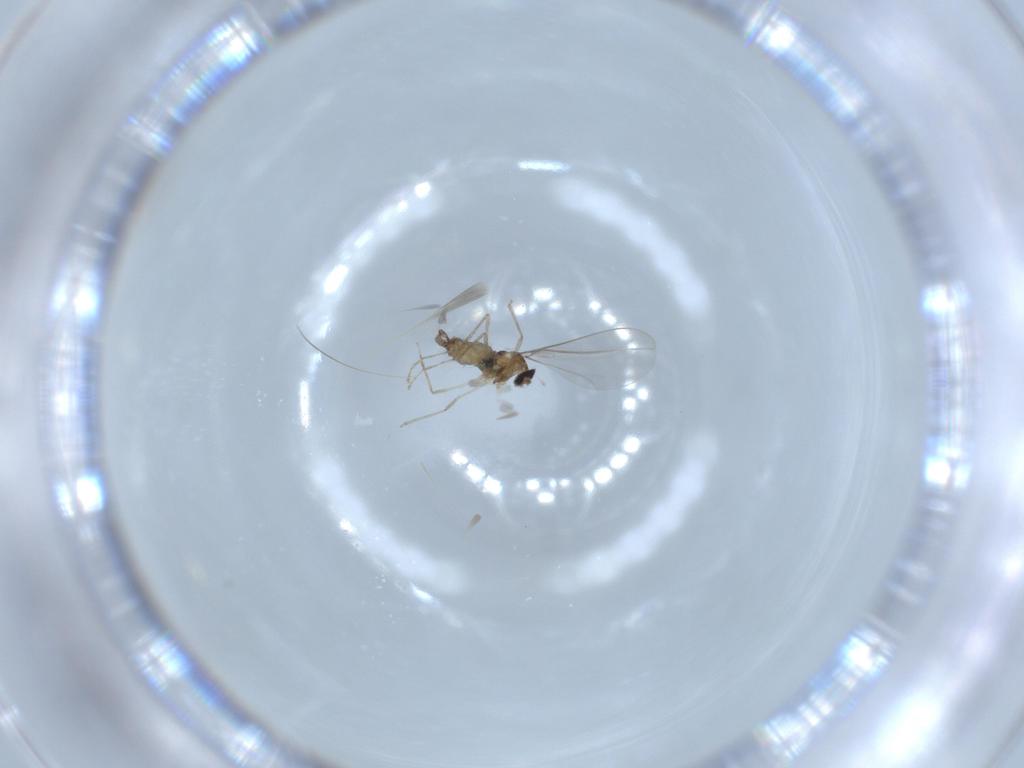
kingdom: Animalia
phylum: Arthropoda
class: Insecta
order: Diptera
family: Cecidomyiidae
